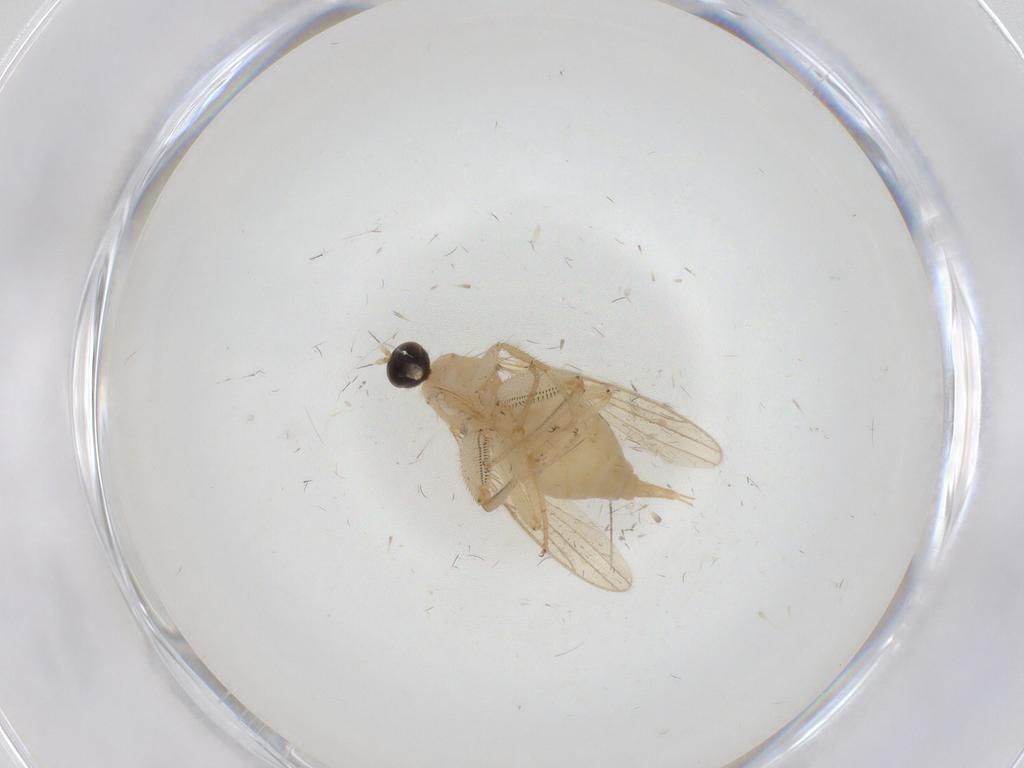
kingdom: Animalia
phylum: Arthropoda
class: Insecta
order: Diptera
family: Hybotidae
